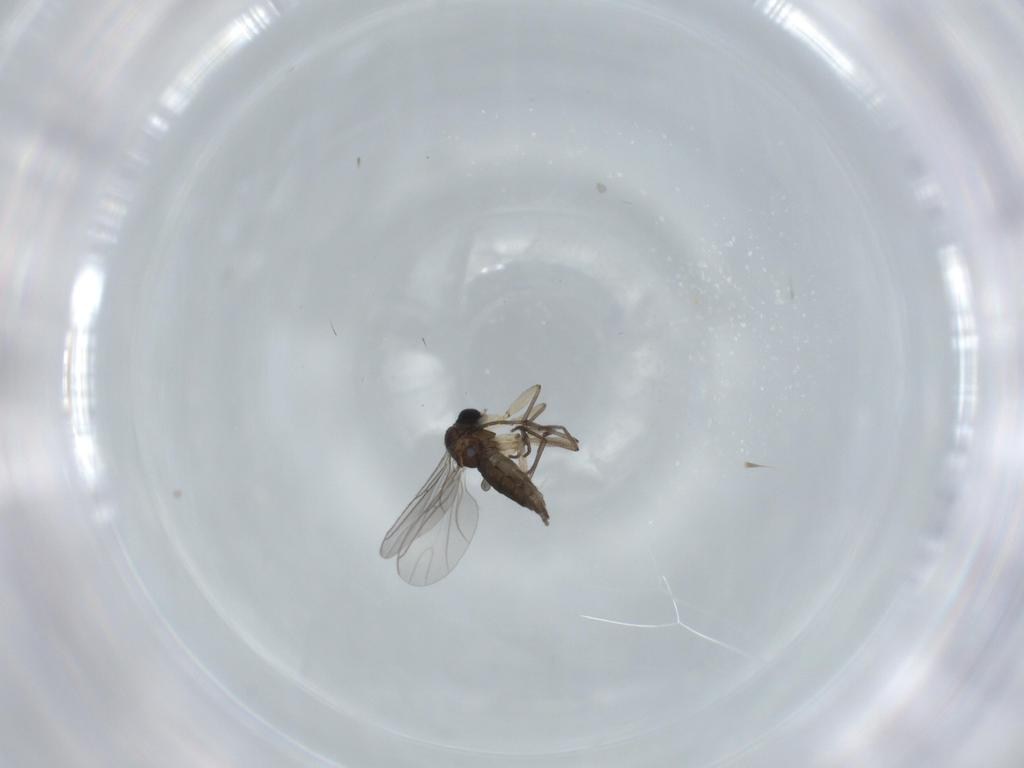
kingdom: Animalia
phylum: Arthropoda
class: Insecta
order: Diptera
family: Sciaridae
